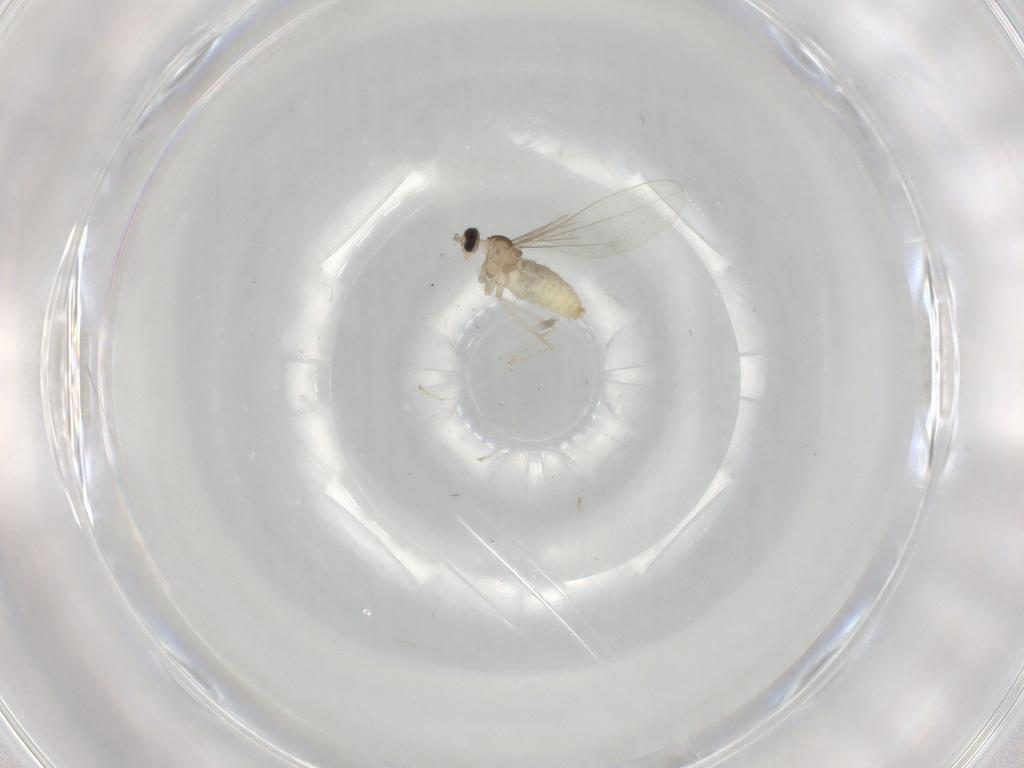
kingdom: Animalia
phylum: Arthropoda
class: Insecta
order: Diptera
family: Cecidomyiidae
